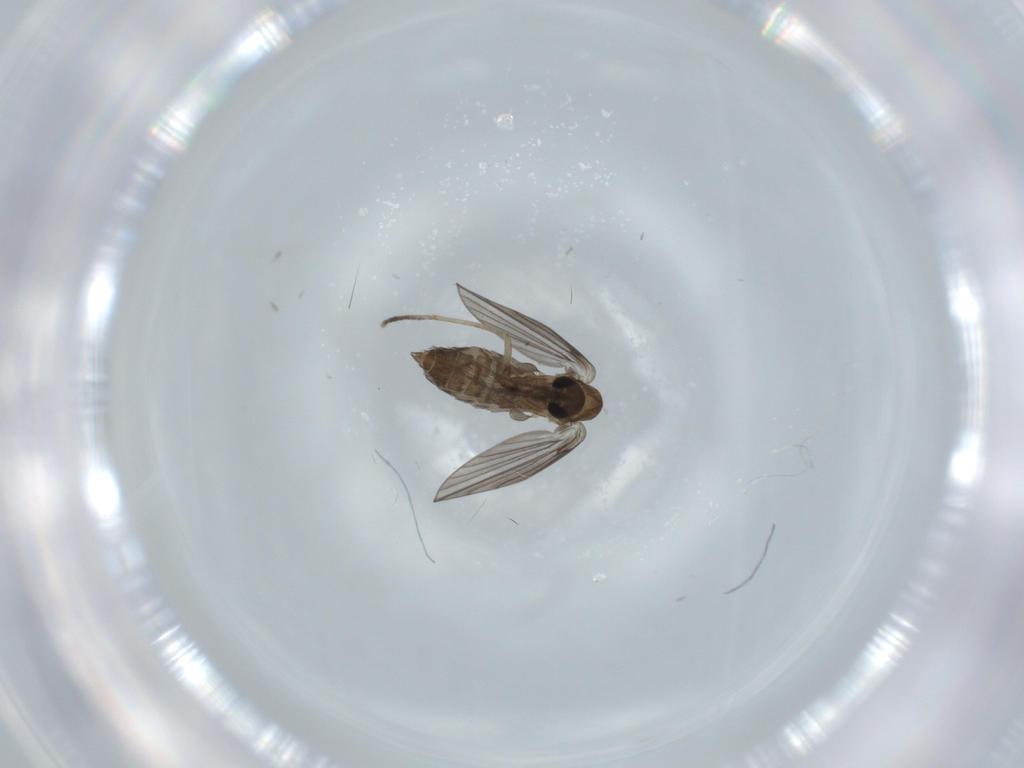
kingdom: Animalia
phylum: Arthropoda
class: Insecta
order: Diptera
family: Psychodidae
